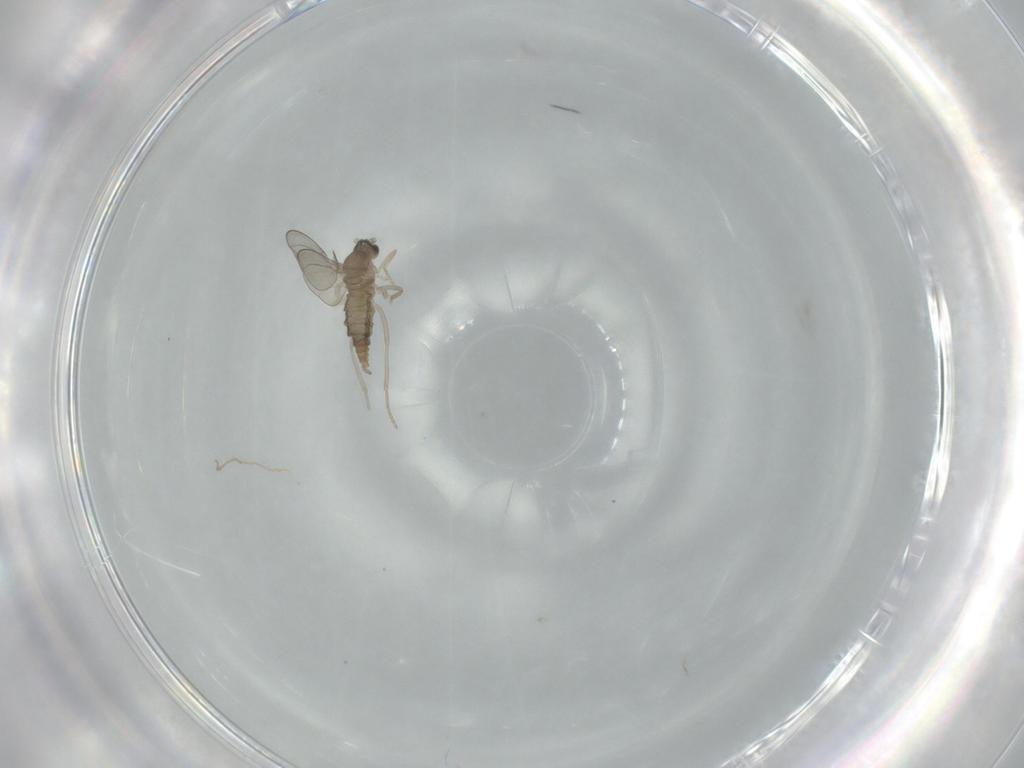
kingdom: Animalia
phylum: Arthropoda
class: Insecta
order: Diptera
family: Cecidomyiidae
